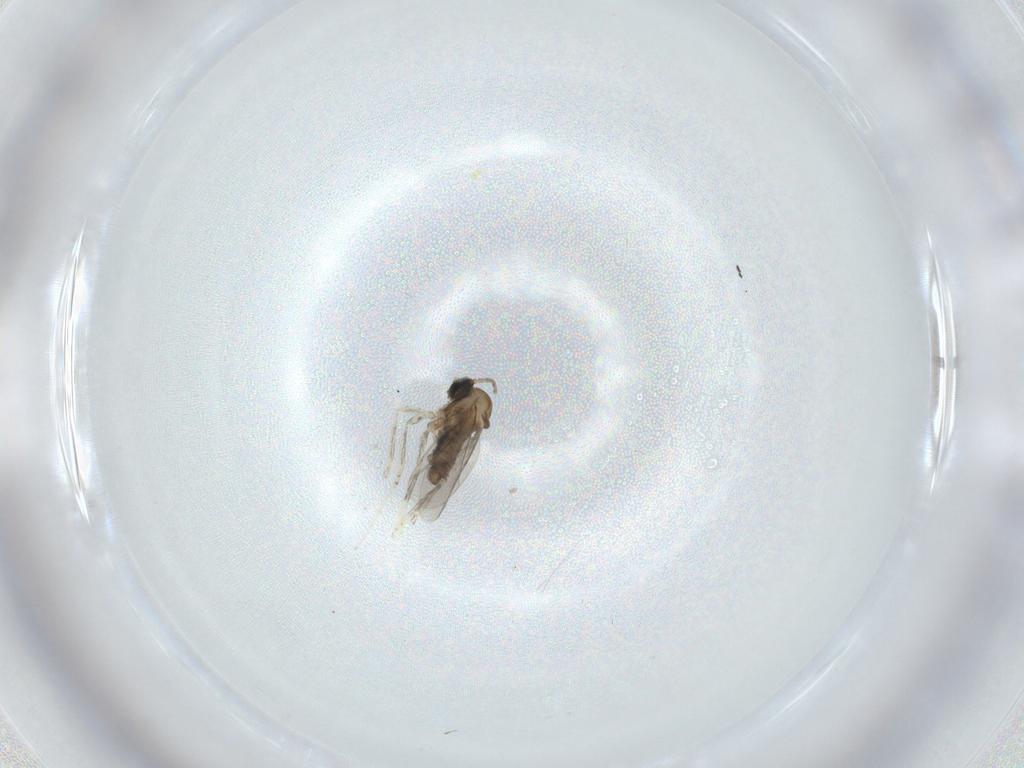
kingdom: Animalia
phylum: Arthropoda
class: Insecta
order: Diptera
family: Cecidomyiidae
